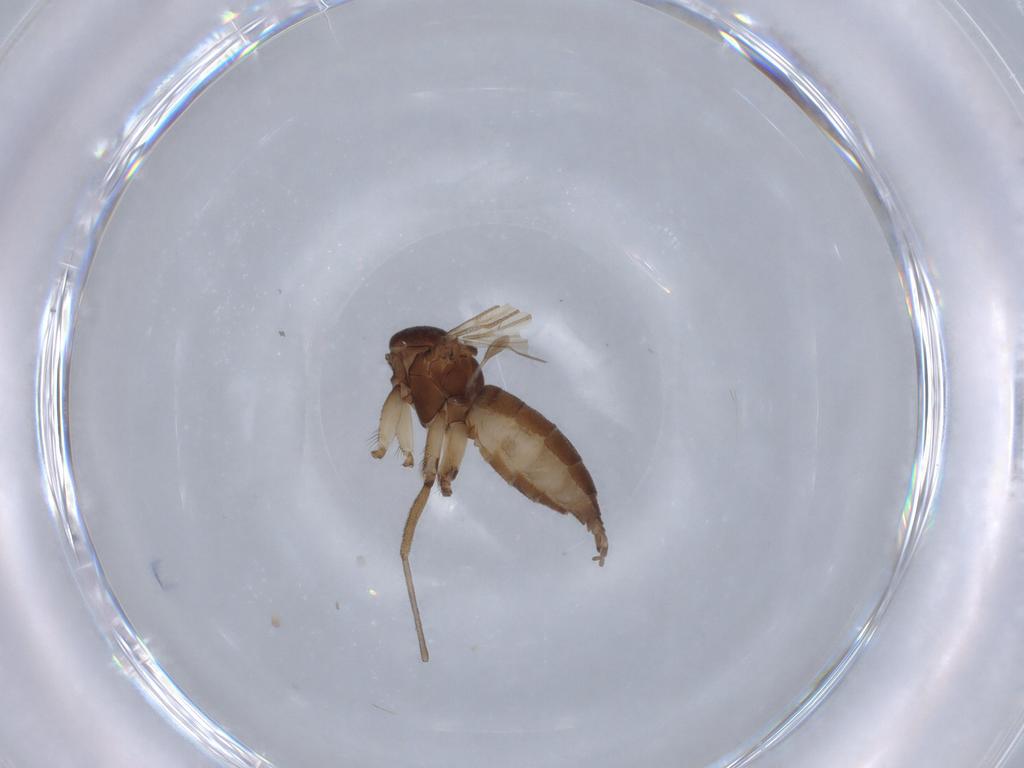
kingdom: Animalia
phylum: Arthropoda
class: Insecta
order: Diptera
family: Sciaridae
